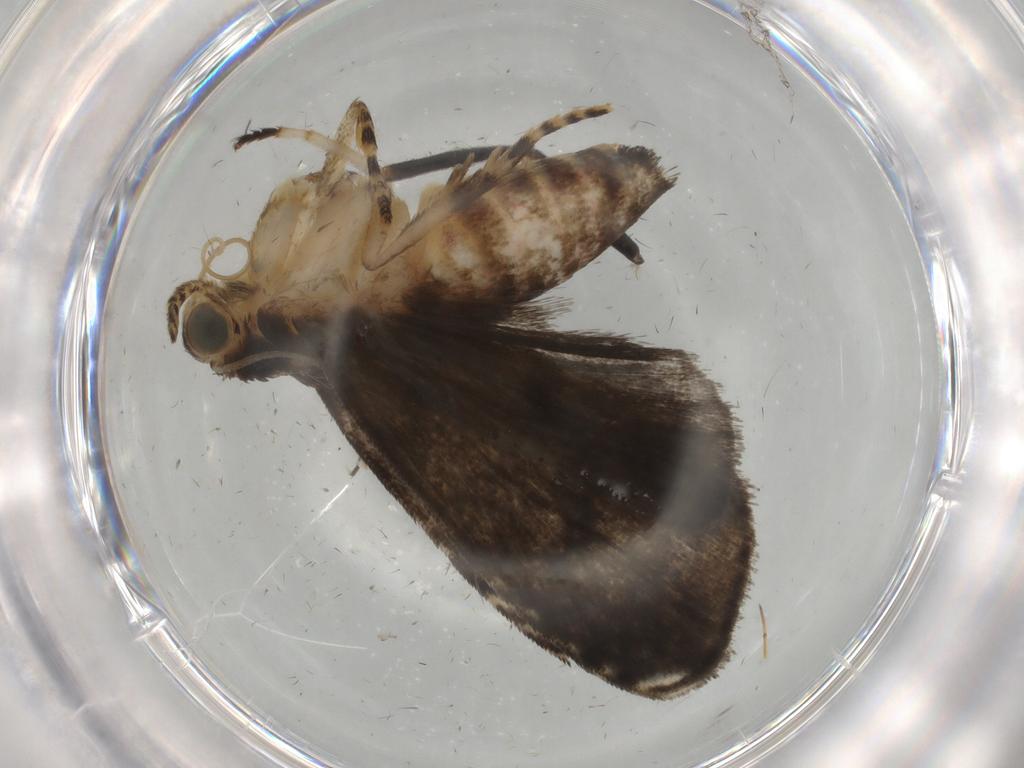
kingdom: Animalia
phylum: Arthropoda
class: Insecta
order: Lepidoptera
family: Immidae
